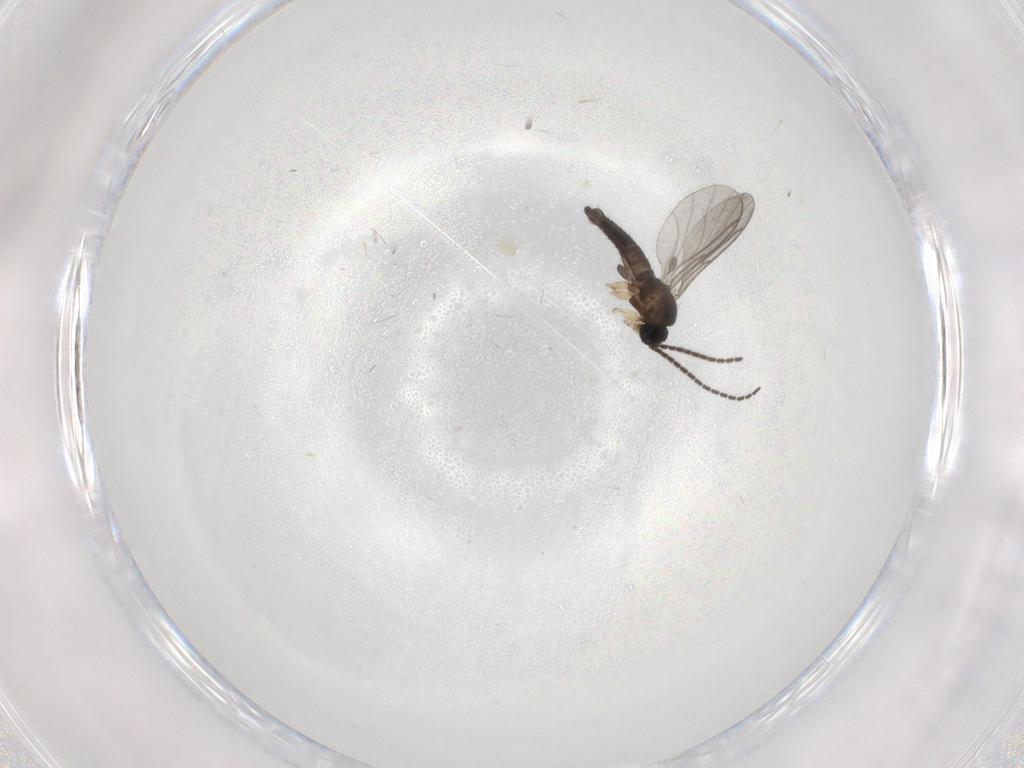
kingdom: Animalia
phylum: Arthropoda
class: Insecta
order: Diptera
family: Sciaridae
